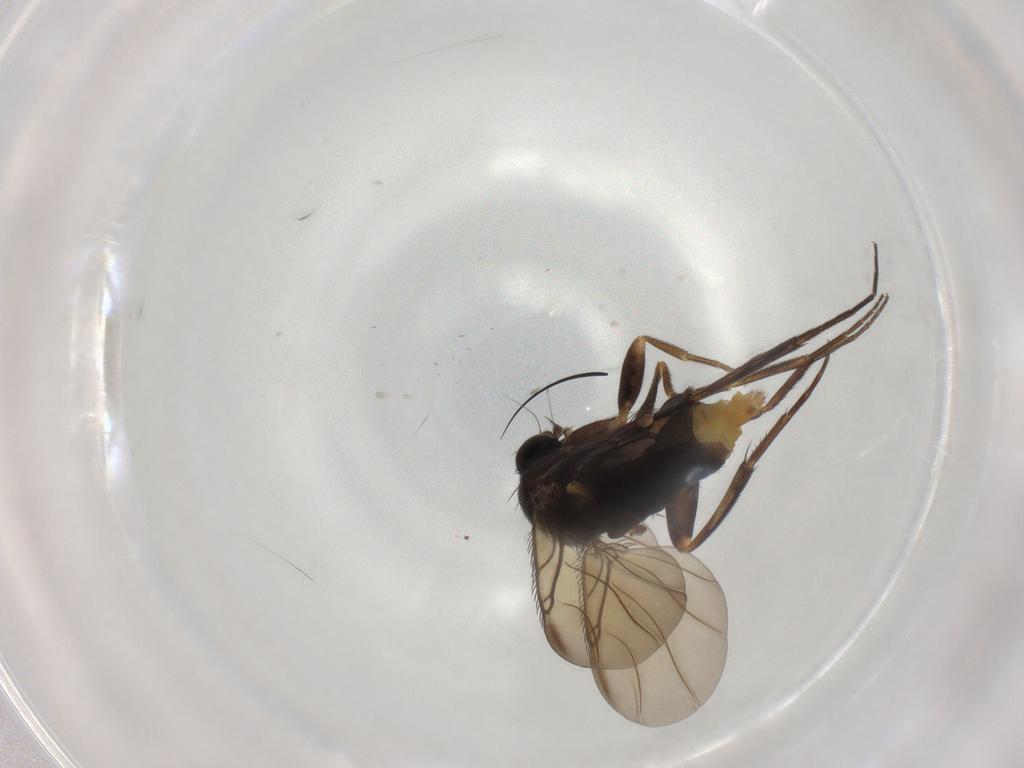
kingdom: Animalia
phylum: Arthropoda
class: Insecta
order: Diptera
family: Phoridae
